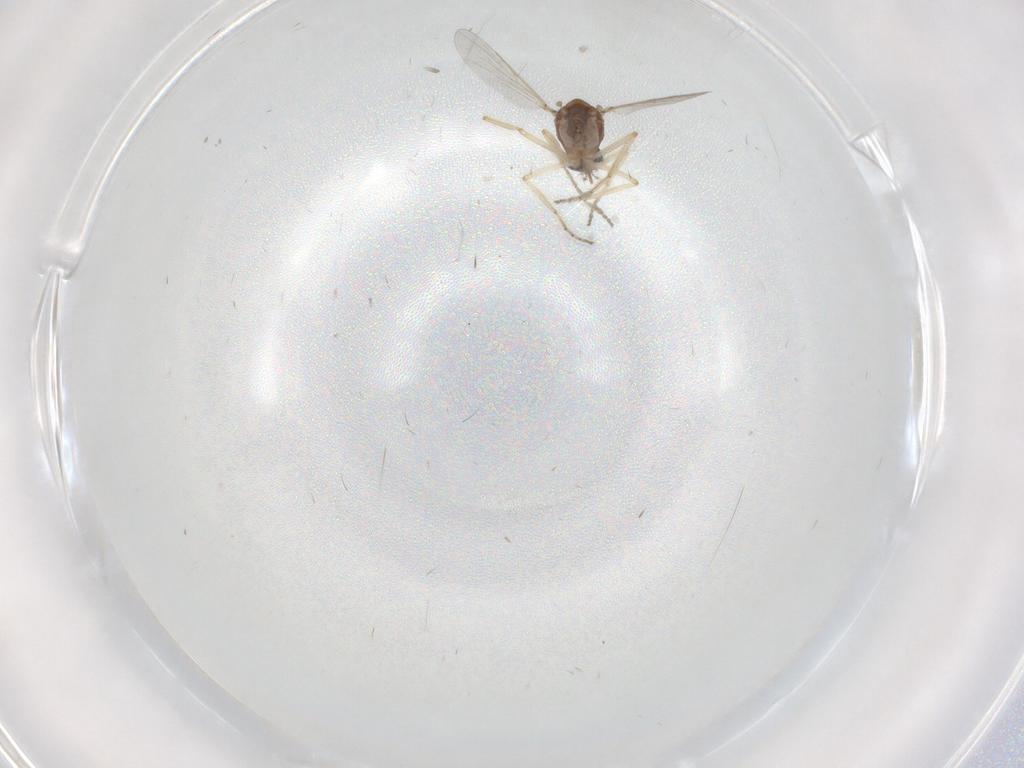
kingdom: Animalia
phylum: Arthropoda
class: Insecta
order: Diptera
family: Ceratopogonidae
